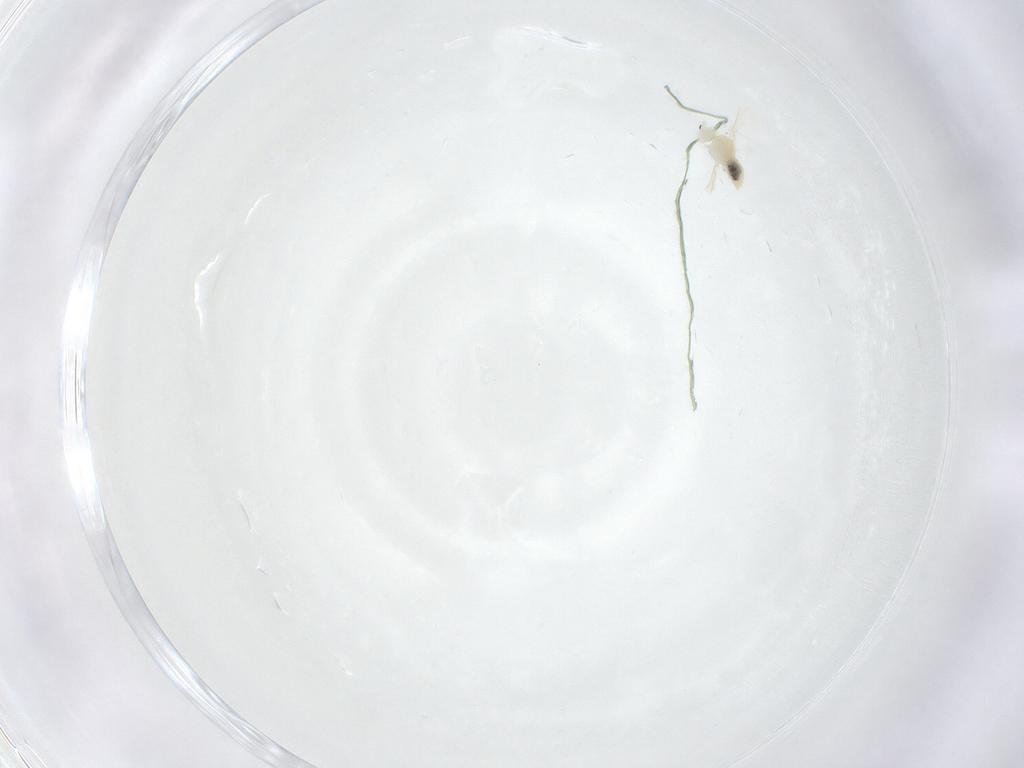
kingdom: Animalia
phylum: Arthropoda
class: Insecta
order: Diptera
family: Cecidomyiidae
